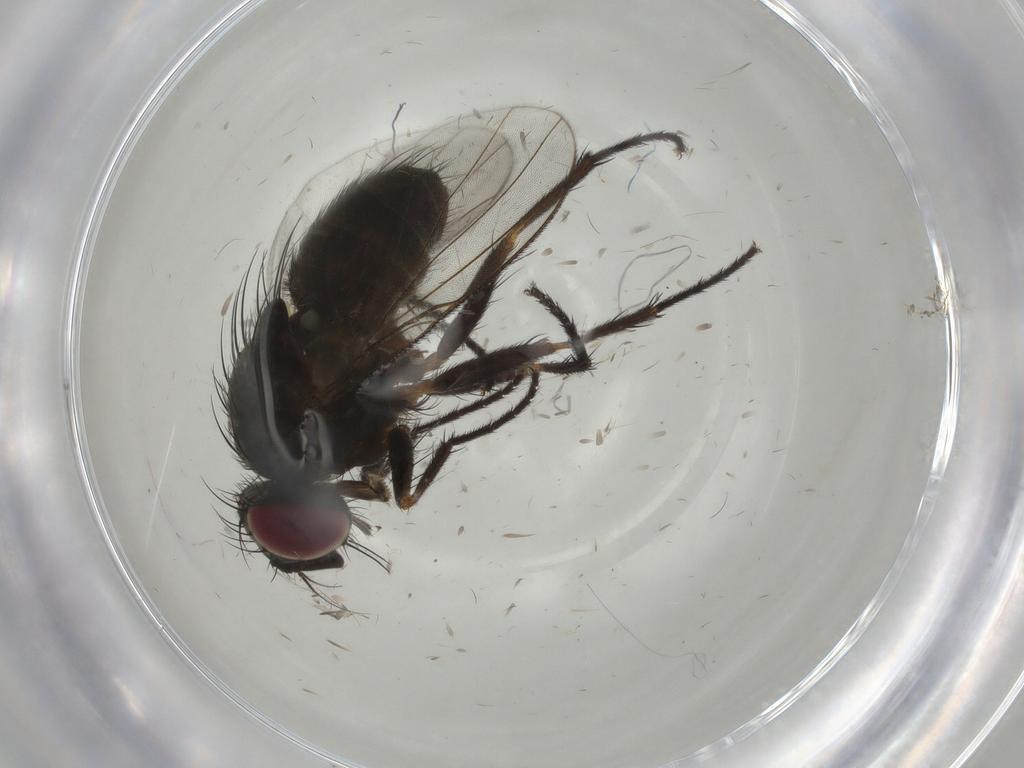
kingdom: Animalia
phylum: Arthropoda
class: Insecta
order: Diptera
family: Muscidae
